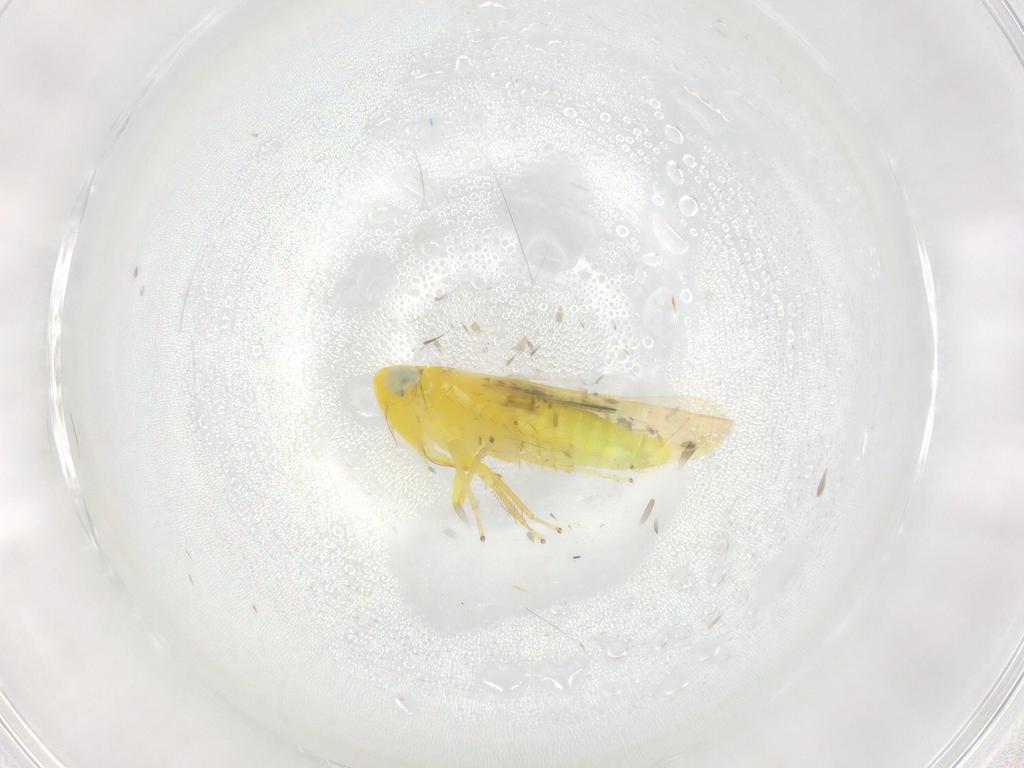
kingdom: Animalia
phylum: Arthropoda
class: Insecta
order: Hemiptera
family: Cicadellidae
